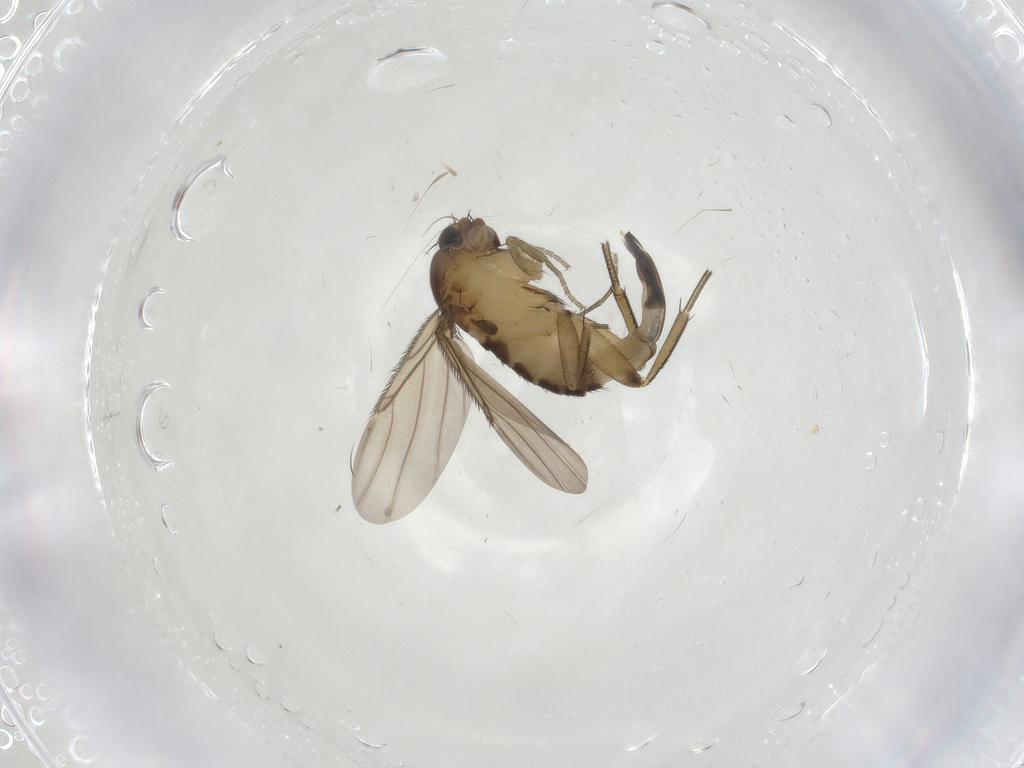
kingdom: Animalia
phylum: Arthropoda
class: Insecta
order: Diptera
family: Phoridae
